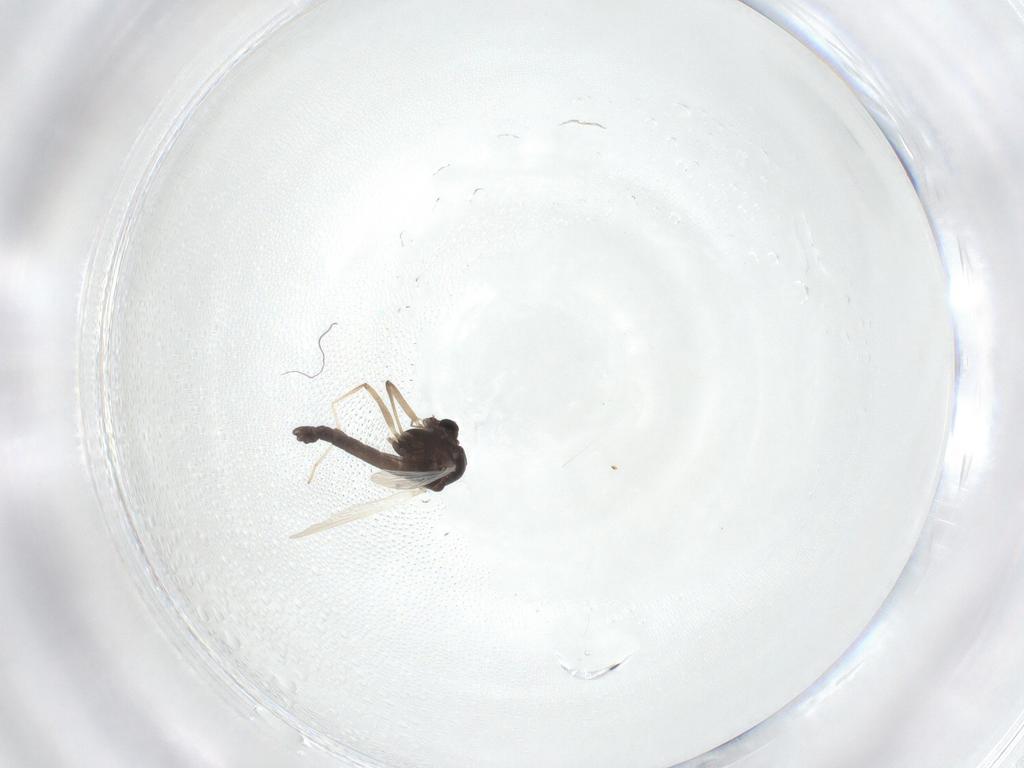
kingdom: Animalia
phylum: Arthropoda
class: Insecta
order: Diptera
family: Chironomidae
